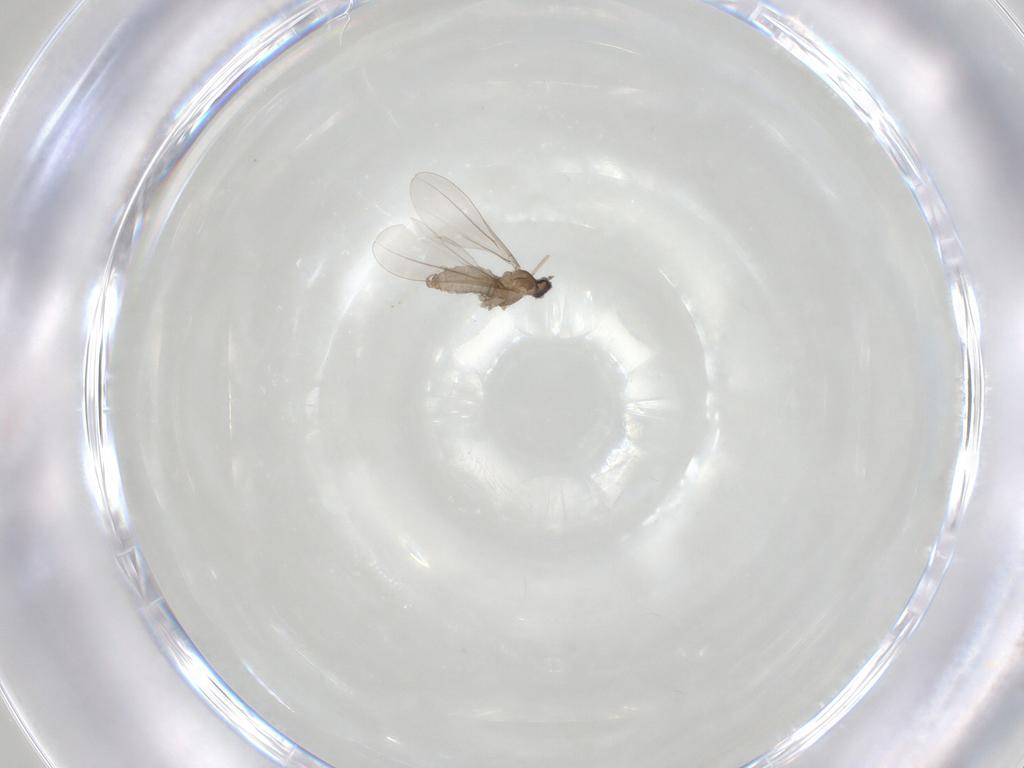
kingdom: Animalia
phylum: Arthropoda
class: Insecta
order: Diptera
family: Cecidomyiidae
